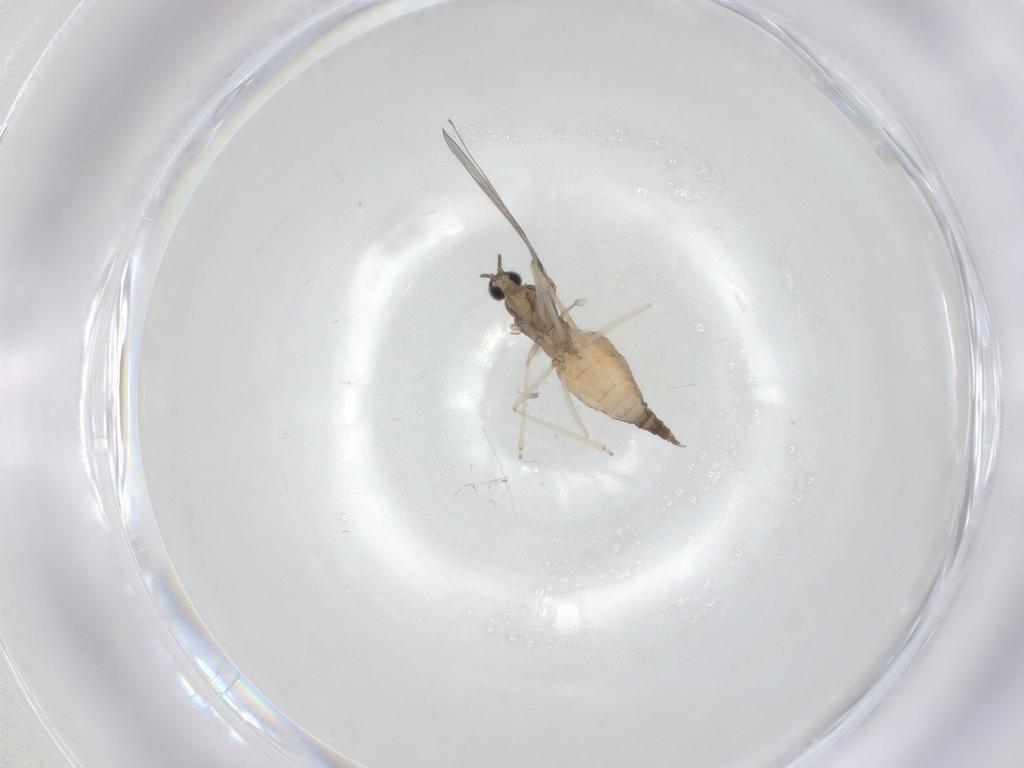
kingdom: Animalia
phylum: Arthropoda
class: Insecta
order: Diptera
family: Cecidomyiidae
